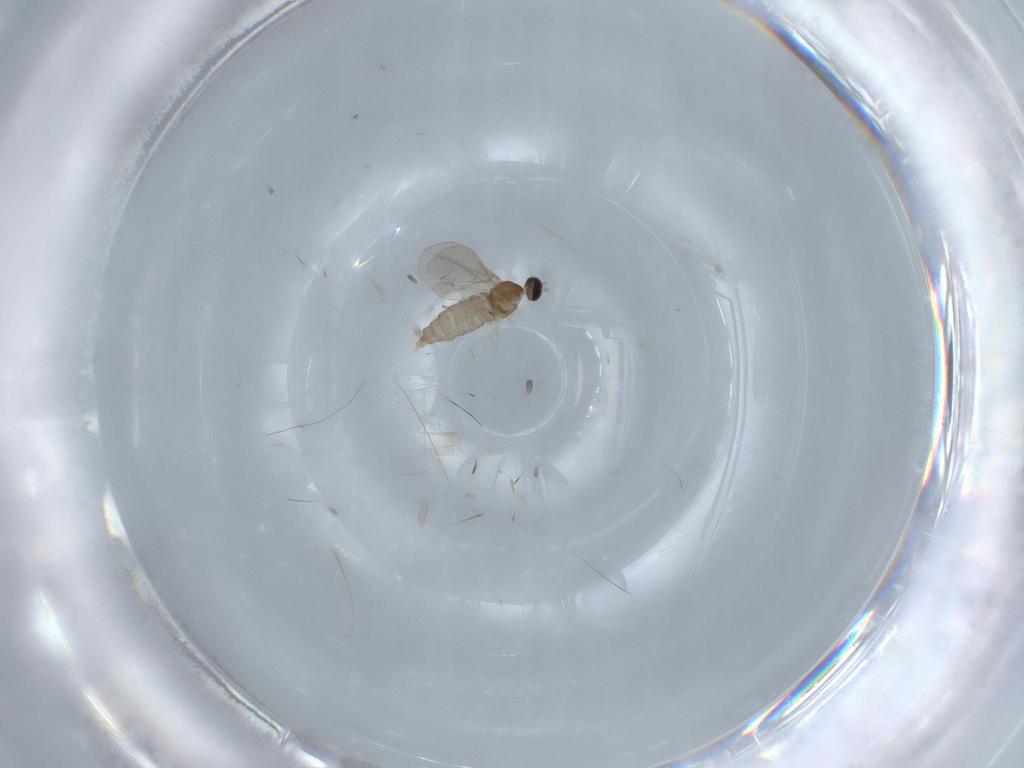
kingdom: Animalia
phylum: Arthropoda
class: Insecta
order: Diptera
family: Cecidomyiidae
